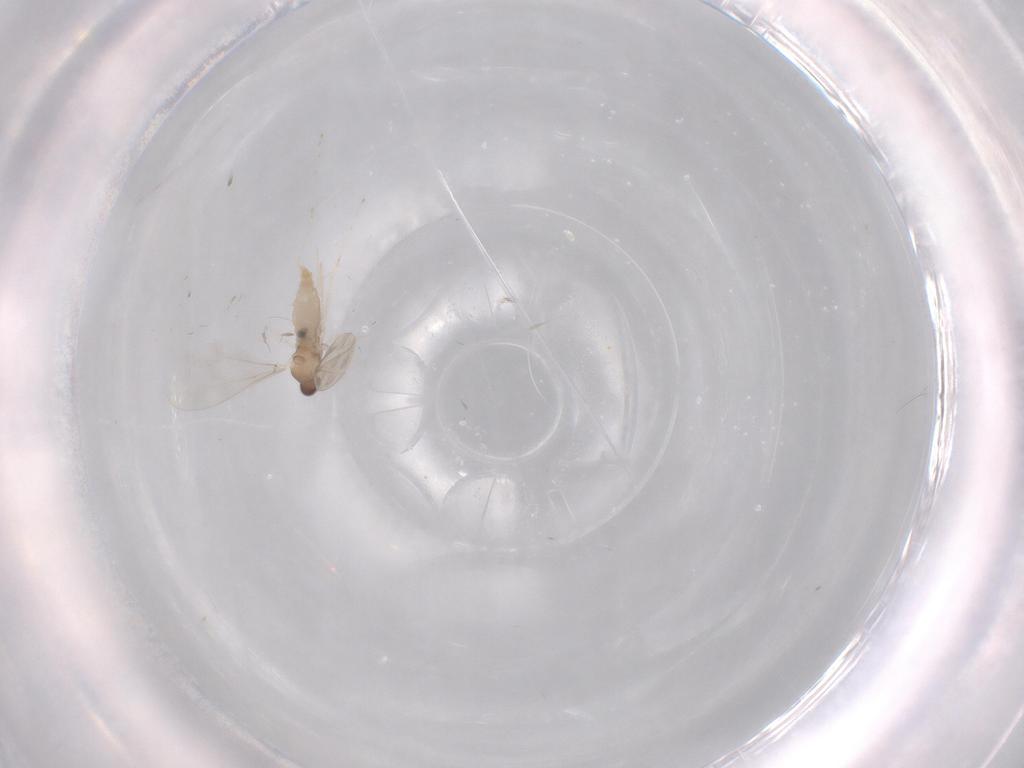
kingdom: Animalia
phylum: Arthropoda
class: Insecta
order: Diptera
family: Cecidomyiidae
